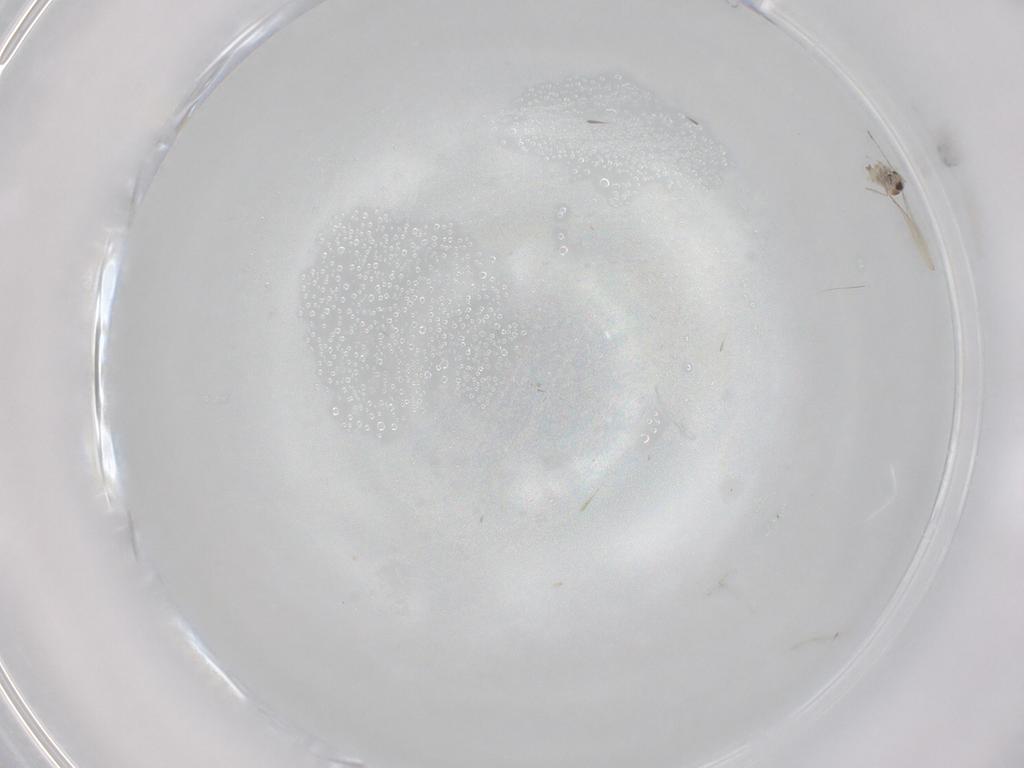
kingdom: Animalia
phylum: Arthropoda
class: Insecta
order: Diptera
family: Cecidomyiidae
